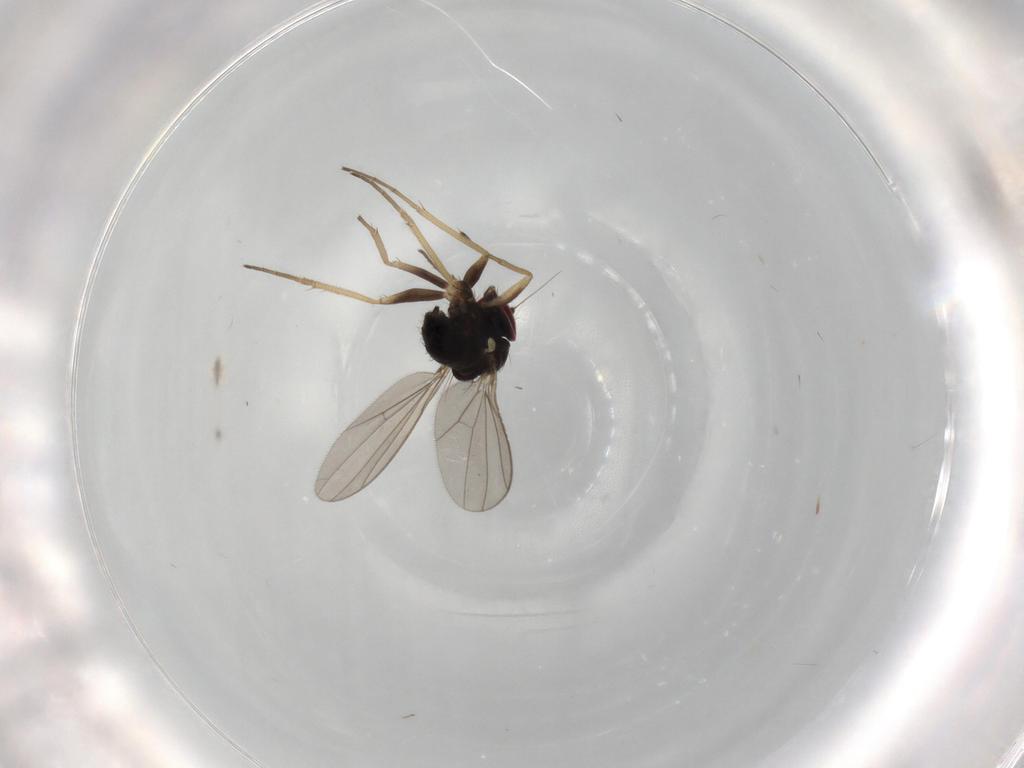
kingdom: Animalia
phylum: Arthropoda
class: Insecta
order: Diptera
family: Dolichopodidae
